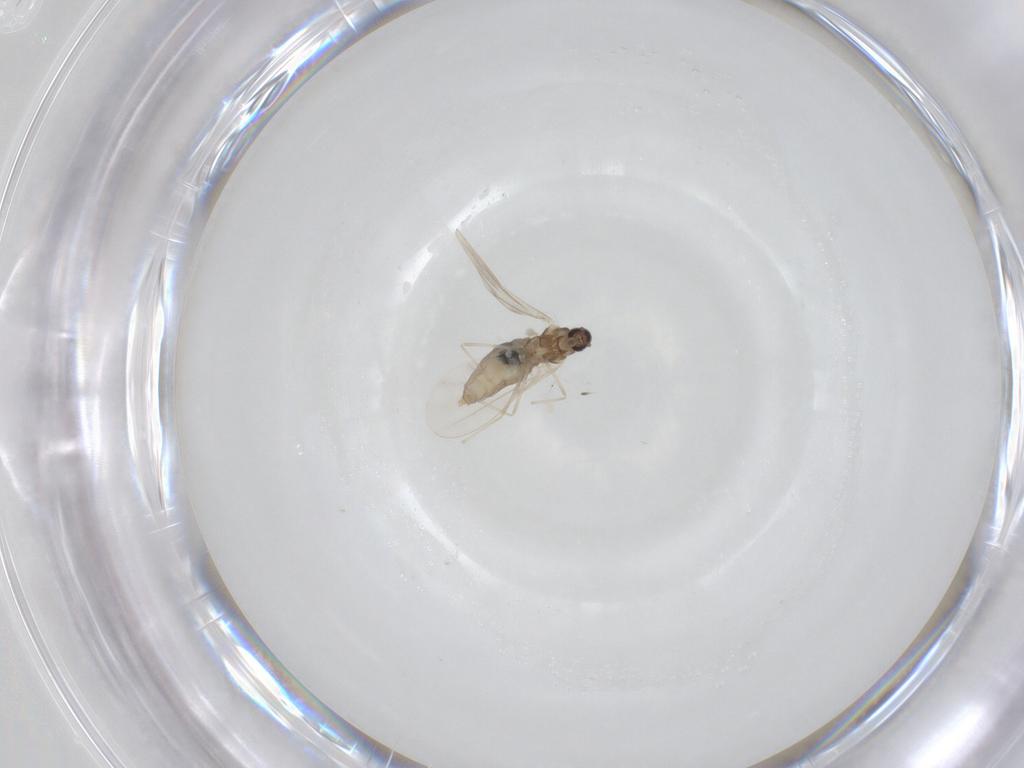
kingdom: Animalia
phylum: Arthropoda
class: Insecta
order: Diptera
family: Cecidomyiidae
